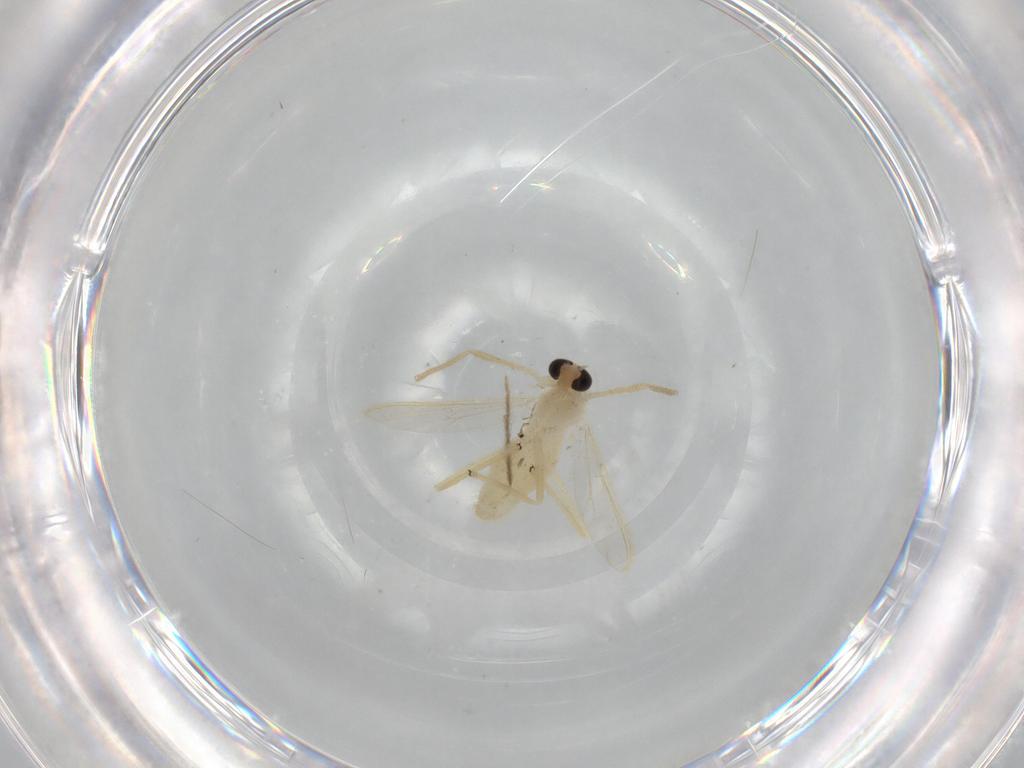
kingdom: Animalia
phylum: Arthropoda
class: Insecta
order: Diptera
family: Chironomidae
